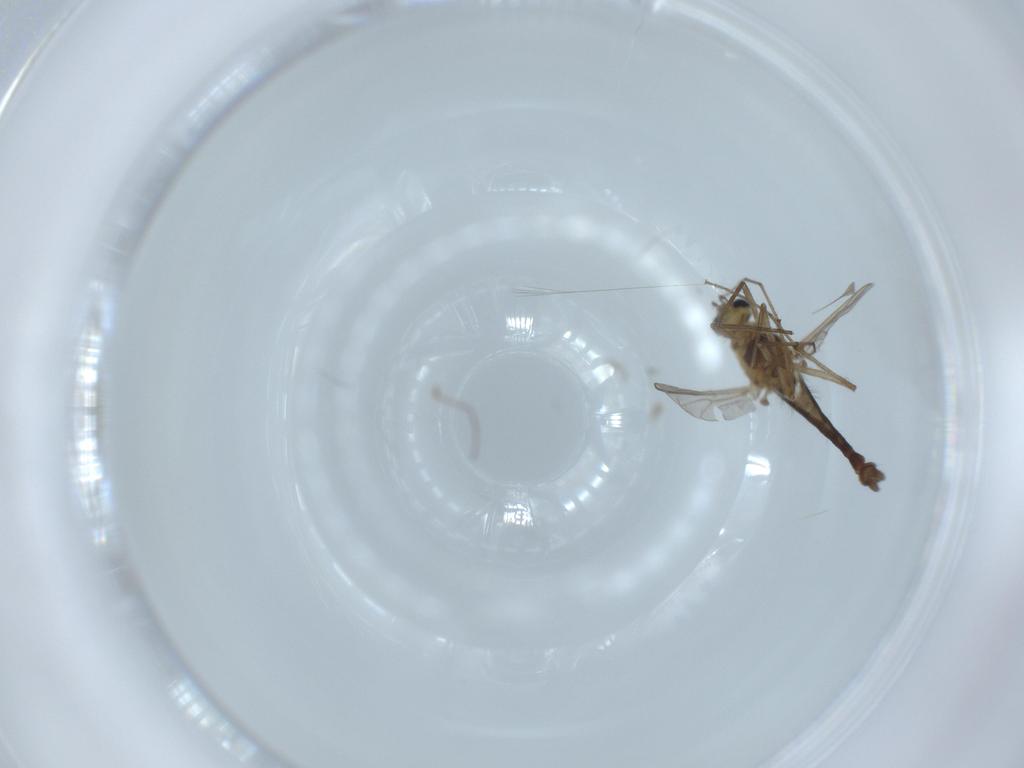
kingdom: Animalia
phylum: Arthropoda
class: Insecta
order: Diptera
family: Chironomidae
